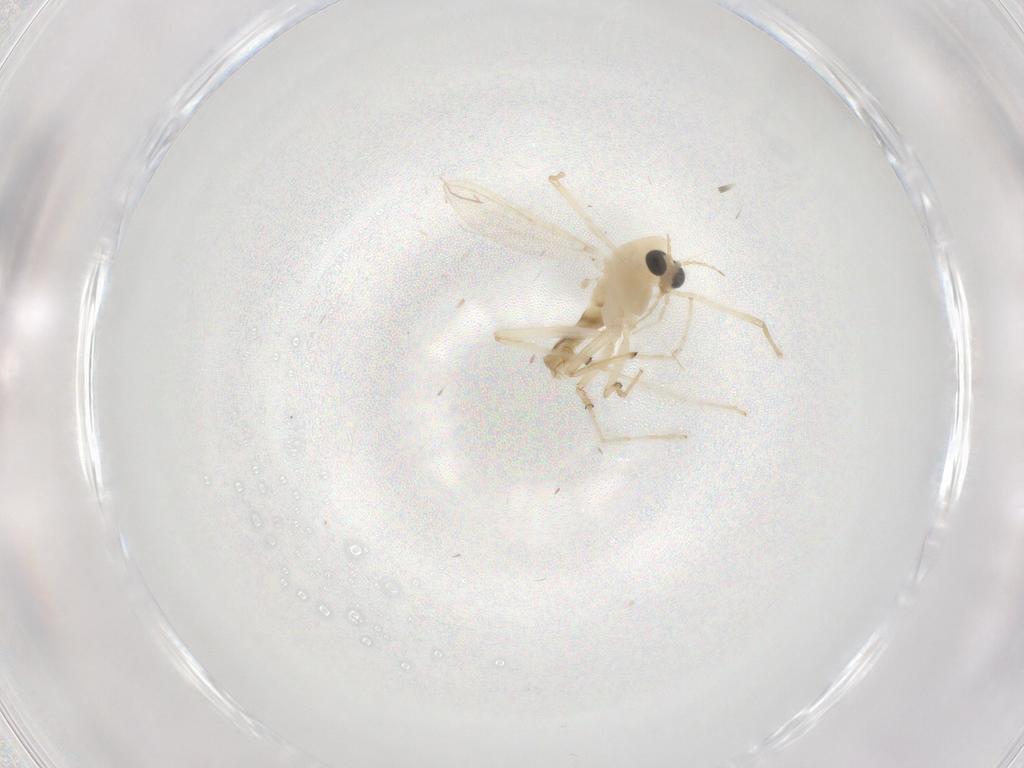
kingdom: Animalia
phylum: Arthropoda
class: Insecta
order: Diptera
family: Chironomidae
